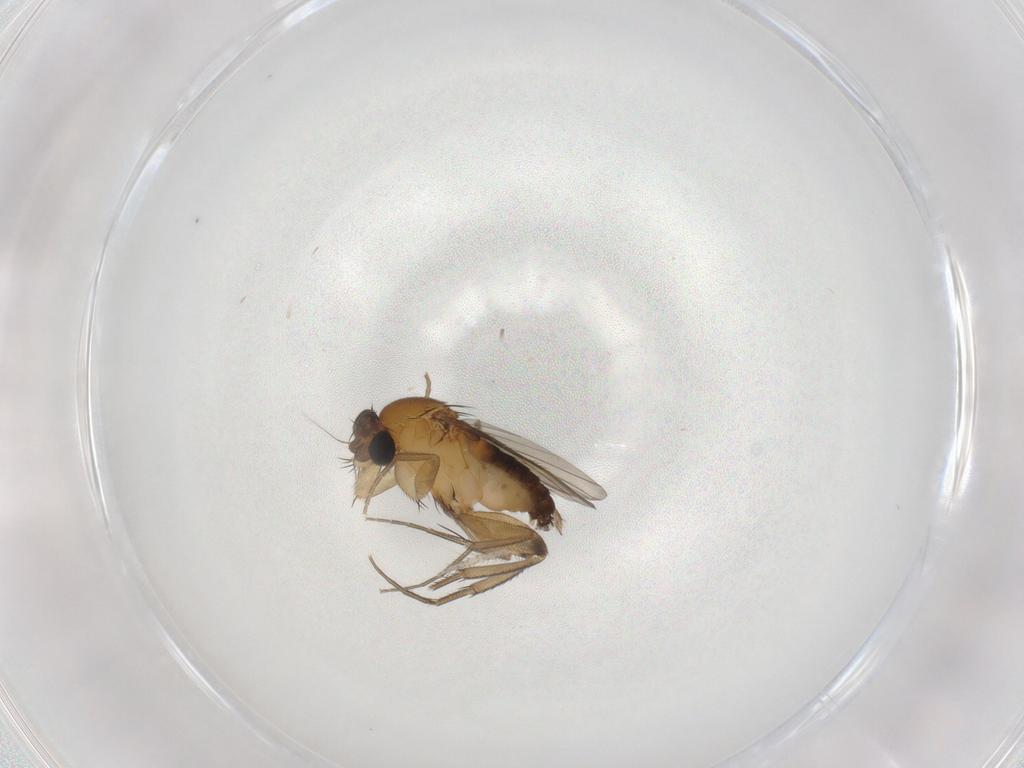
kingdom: Animalia
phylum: Arthropoda
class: Insecta
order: Diptera
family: Phoridae
